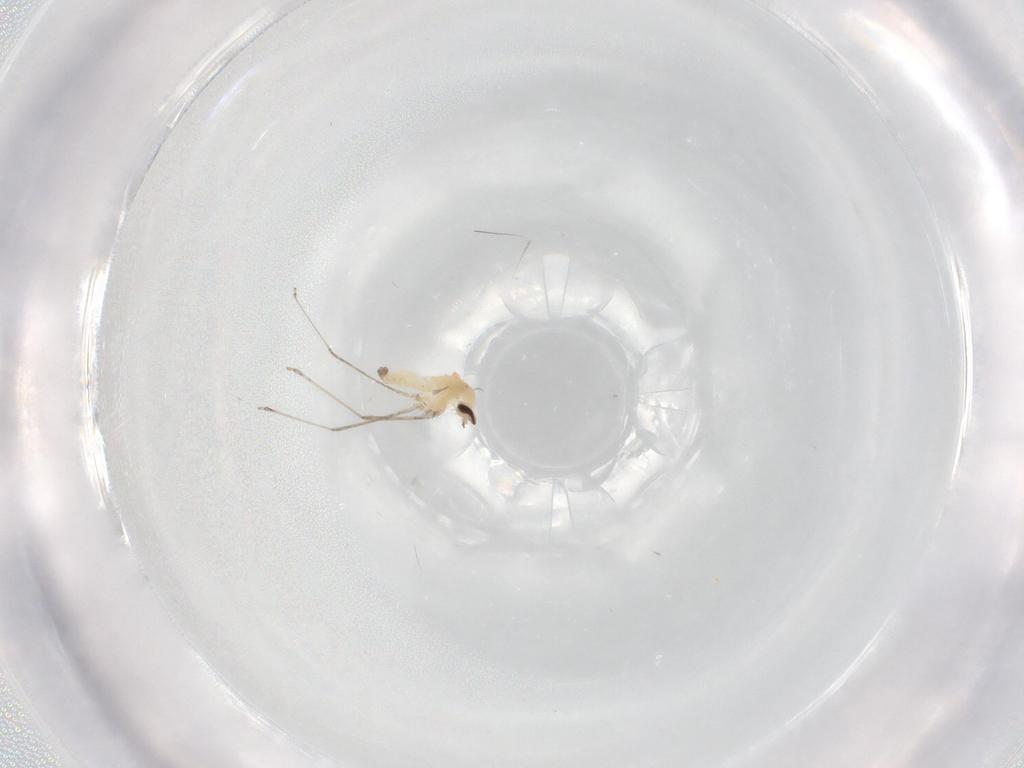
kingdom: Animalia
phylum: Arthropoda
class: Insecta
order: Diptera
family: Cecidomyiidae
